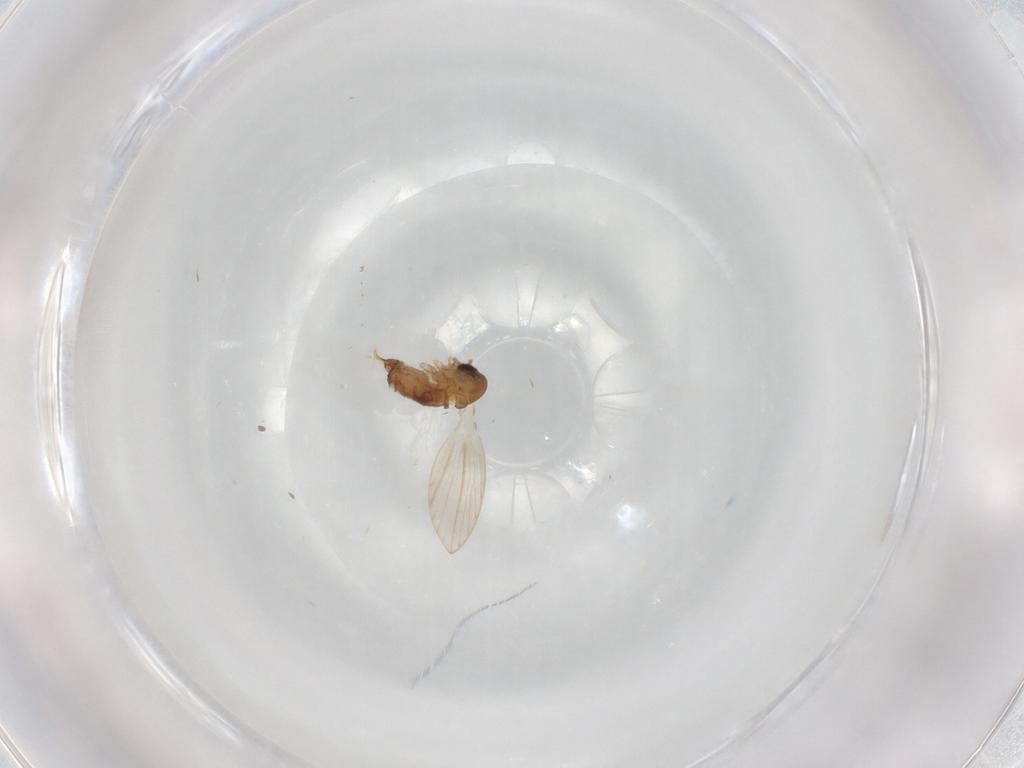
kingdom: Animalia
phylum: Arthropoda
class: Insecta
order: Diptera
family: Psychodidae
